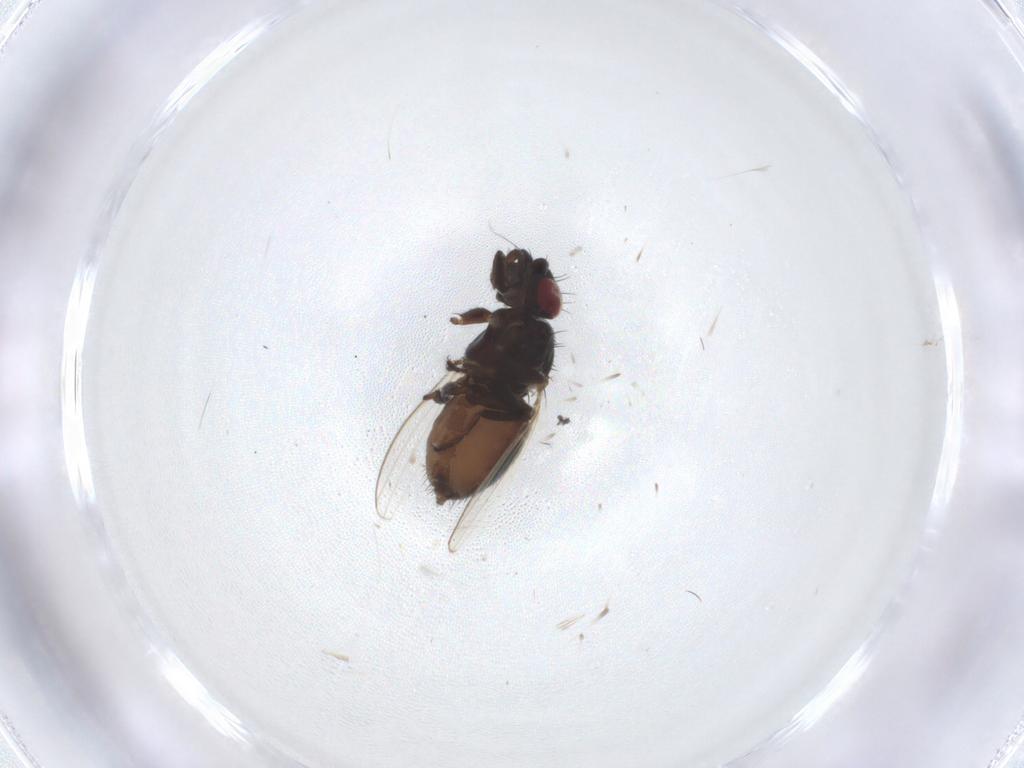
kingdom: Animalia
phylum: Arthropoda
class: Insecta
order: Diptera
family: Milichiidae
